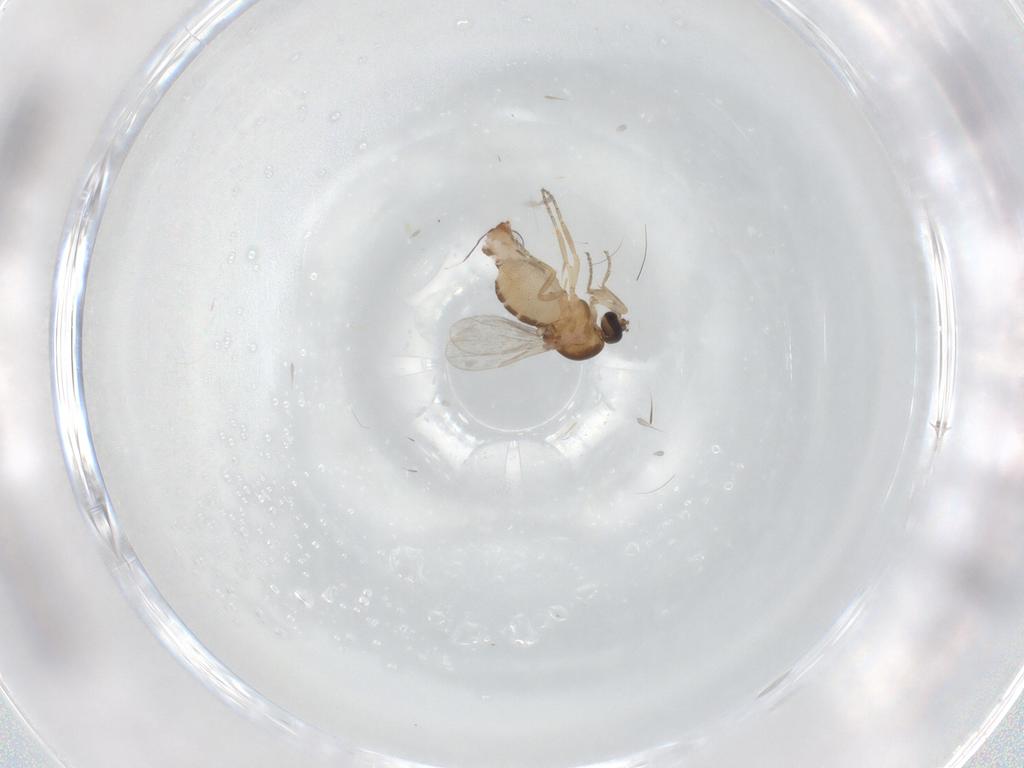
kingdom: Animalia
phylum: Arthropoda
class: Insecta
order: Diptera
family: Ceratopogonidae
